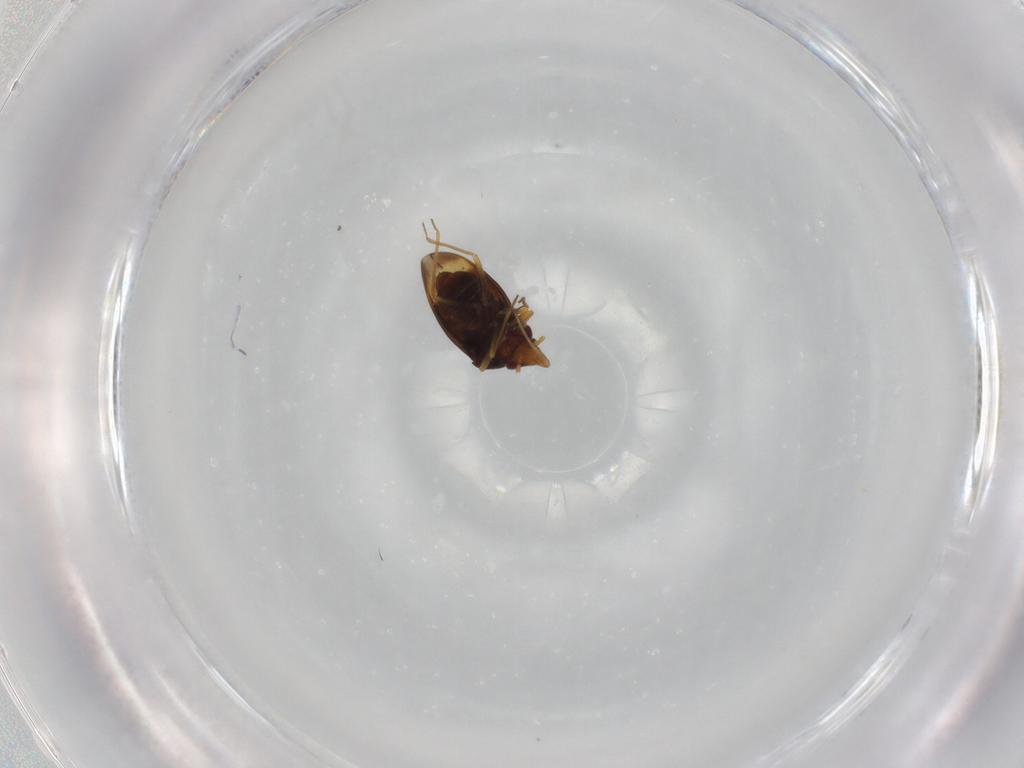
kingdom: Animalia
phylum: Arthropoda
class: Insecta
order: Hemiptera
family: Schizopteridae
